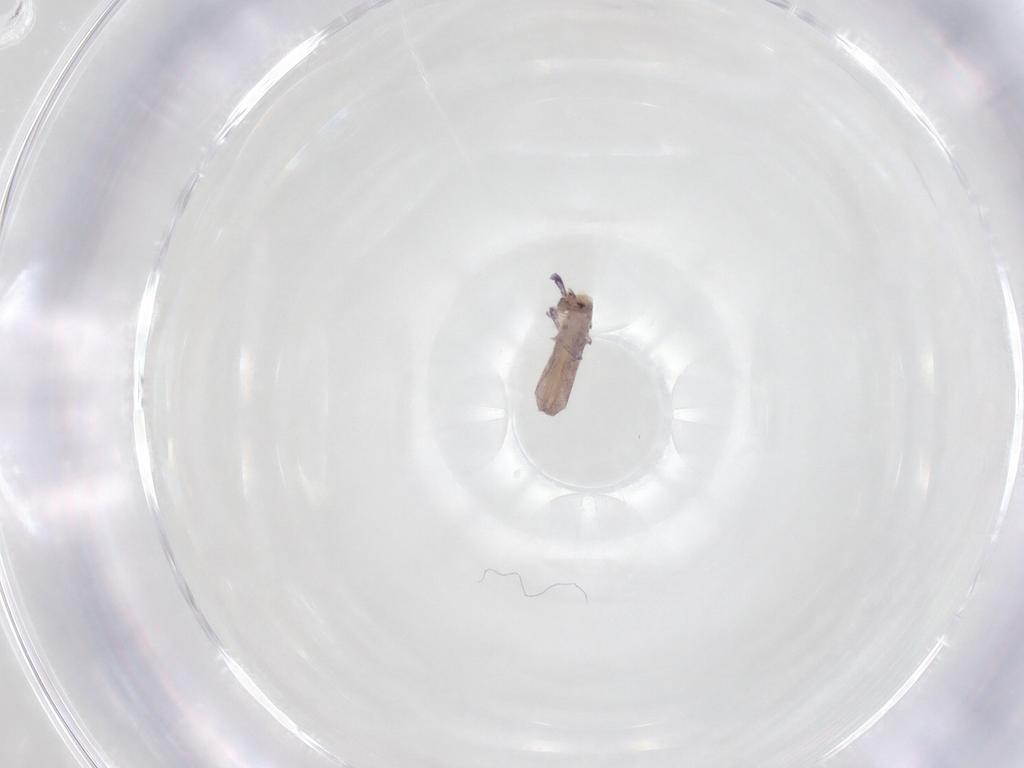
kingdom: Animalia
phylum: Arthropoda
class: Collembola
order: Entomobryomorpha
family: Entomobryidae
